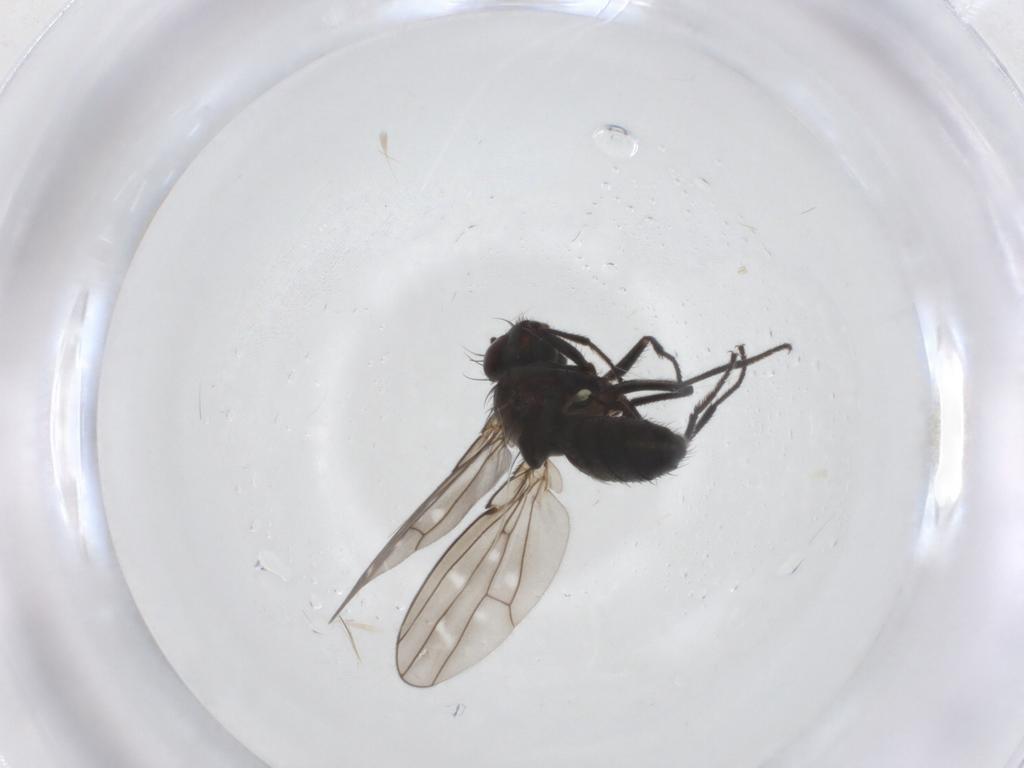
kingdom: Animalia
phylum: Arthropoda
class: Insecta
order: Diptera
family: Ephydridae
